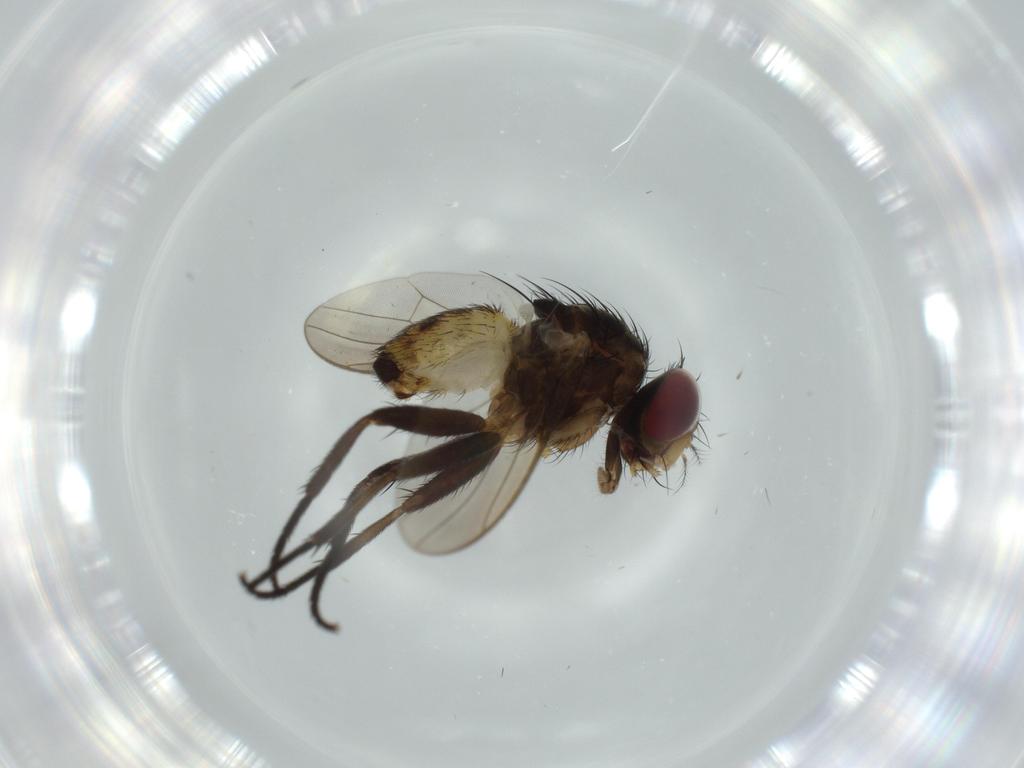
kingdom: Animalia
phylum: Arthropoda
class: Insecta
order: Diptera
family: Anthomyiidae
